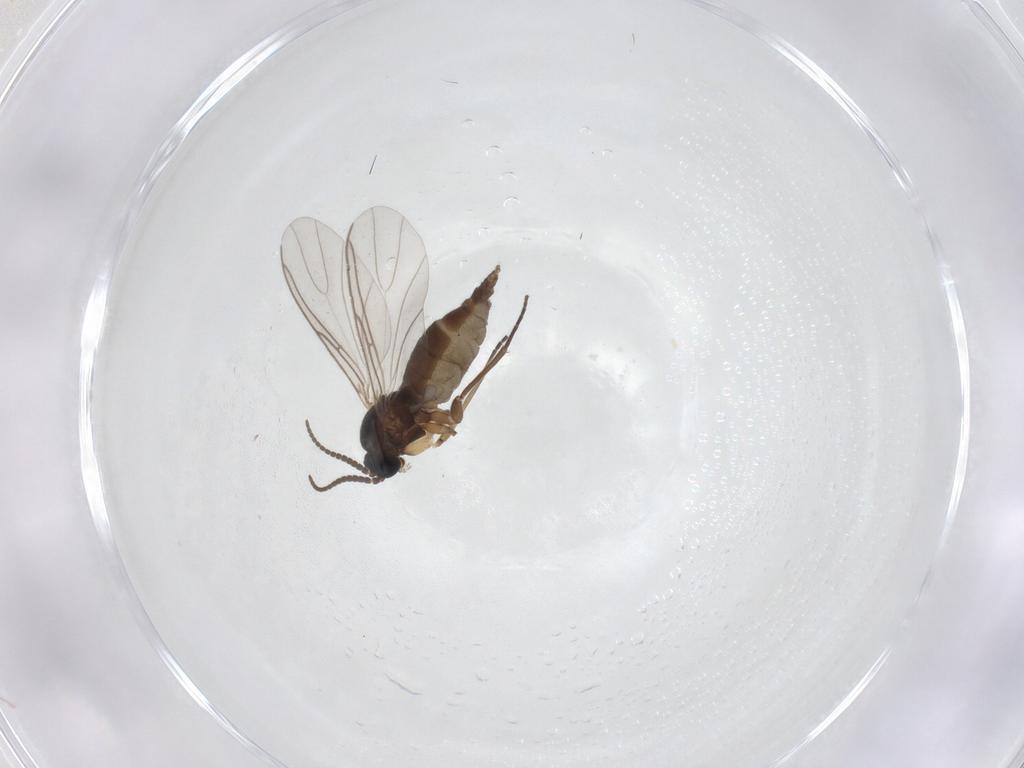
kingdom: Animalia
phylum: Arthropoda
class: Insecta
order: Diptera
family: Sciaridae
